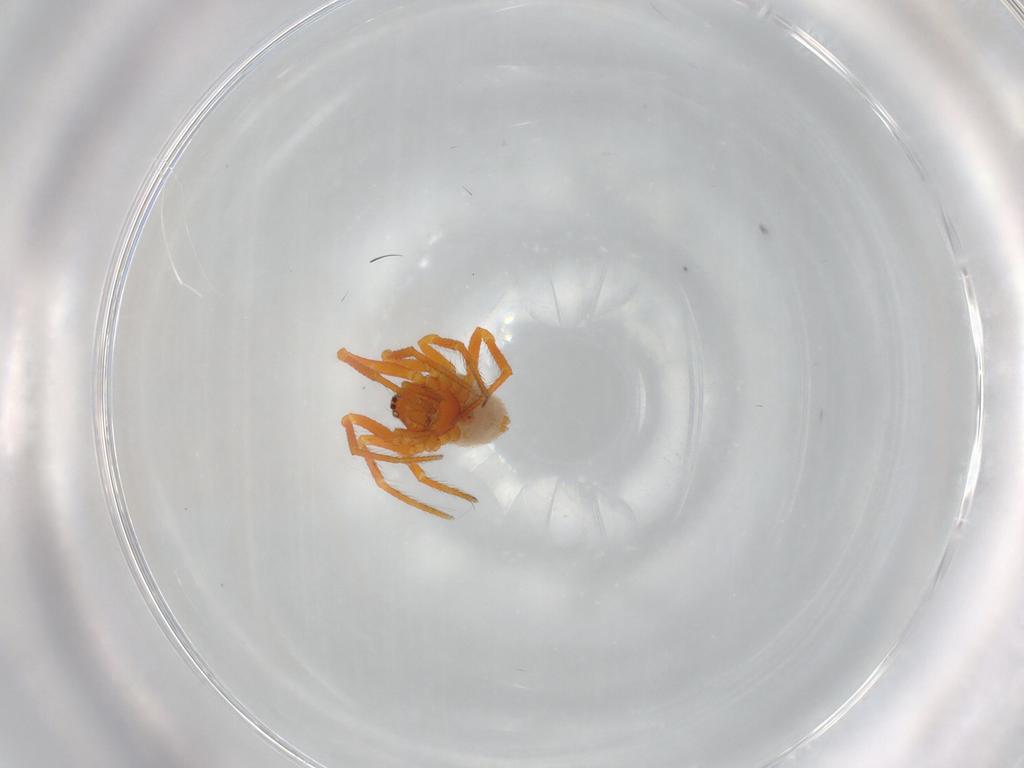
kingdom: Animalia
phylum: Arthropoda
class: Arachnida
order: Araneae
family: Theridiidae
